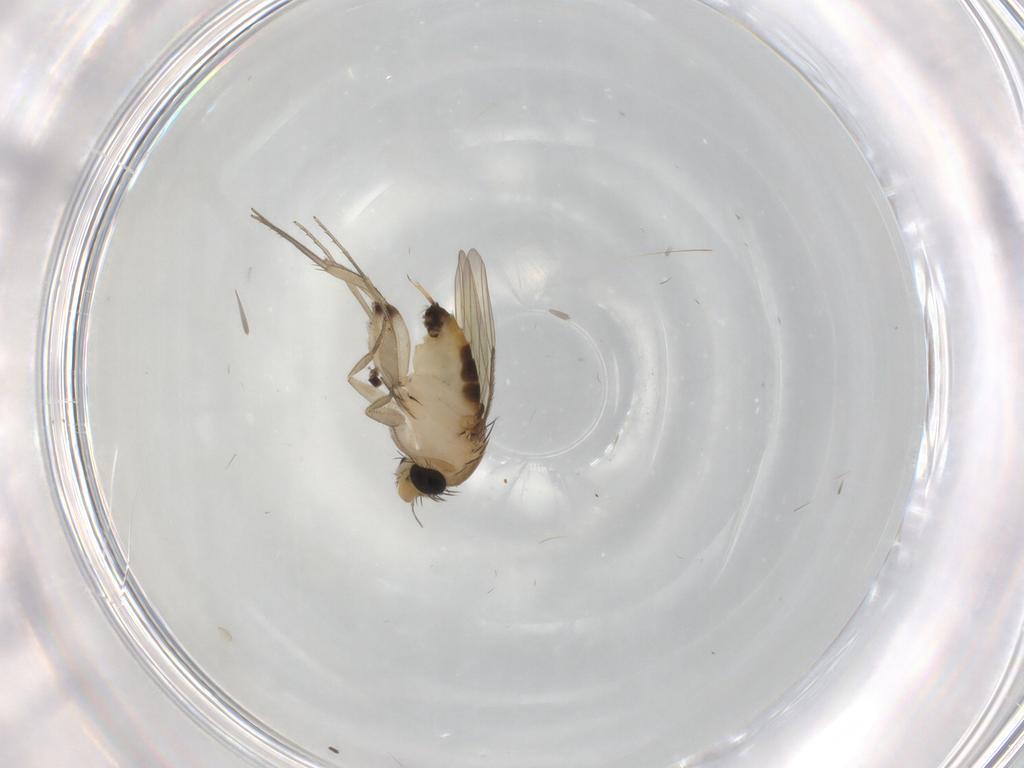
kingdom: Animalia
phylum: Arthropoda
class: Insecta
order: Diptera
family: Phoridae
